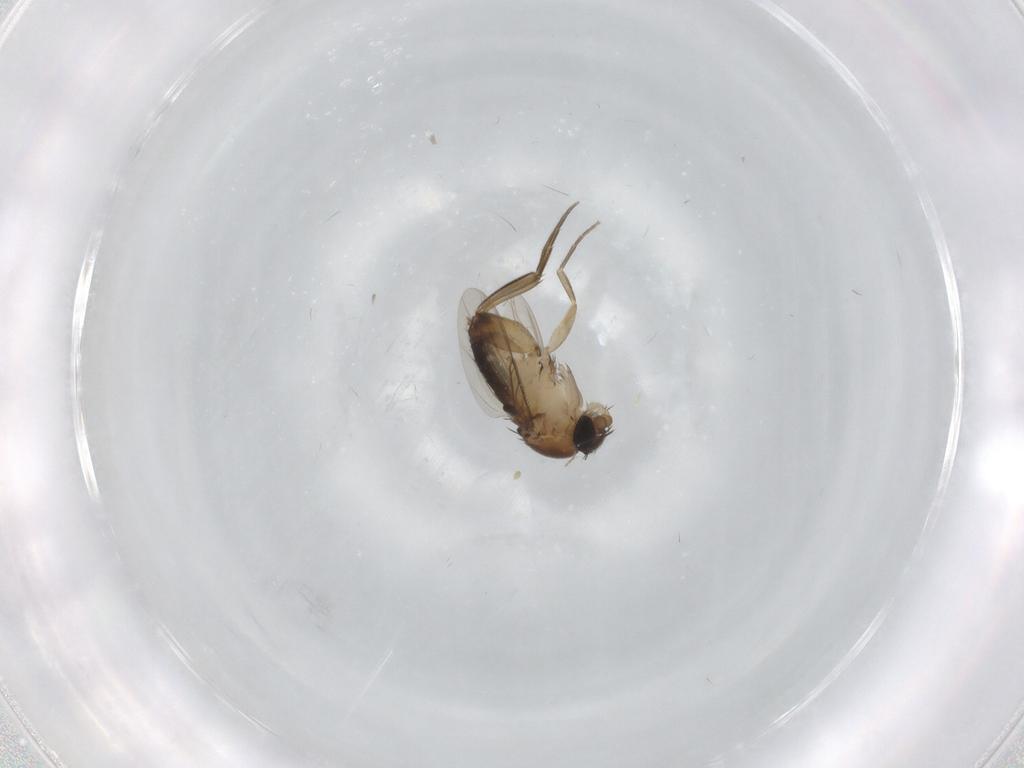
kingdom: Animalia
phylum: Arthropoda
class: Insecta
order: Diptera
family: Phoridae
